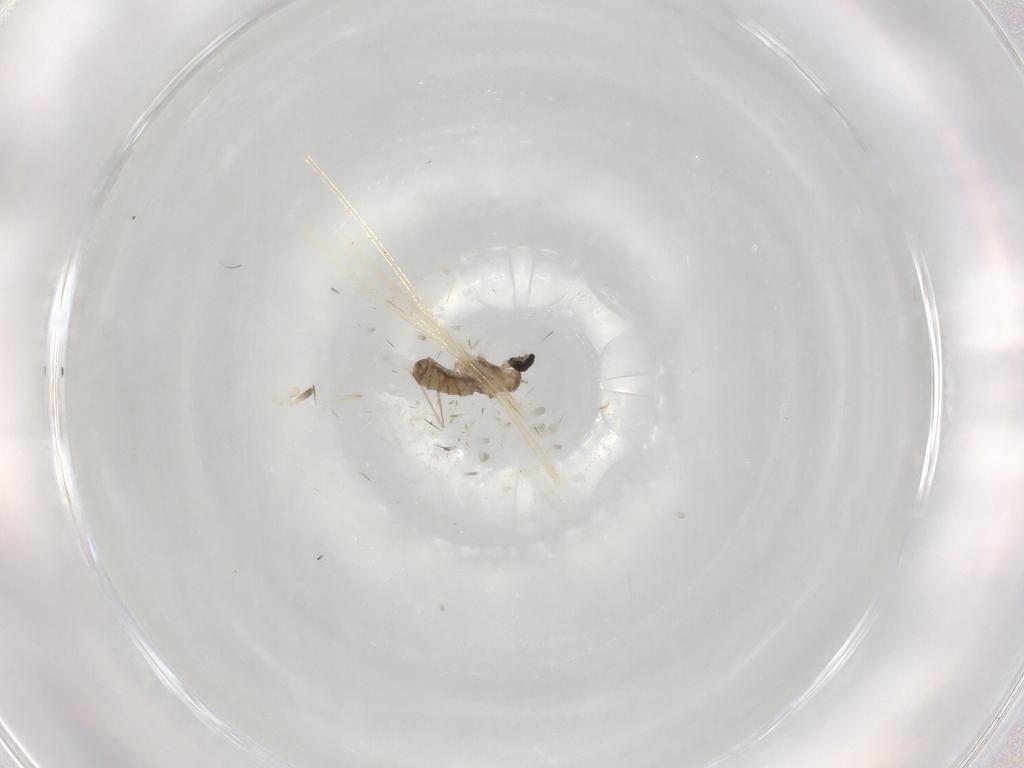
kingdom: Animalia
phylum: Arthropoda
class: Insecta
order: Diptera
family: Cecidomyiidae
